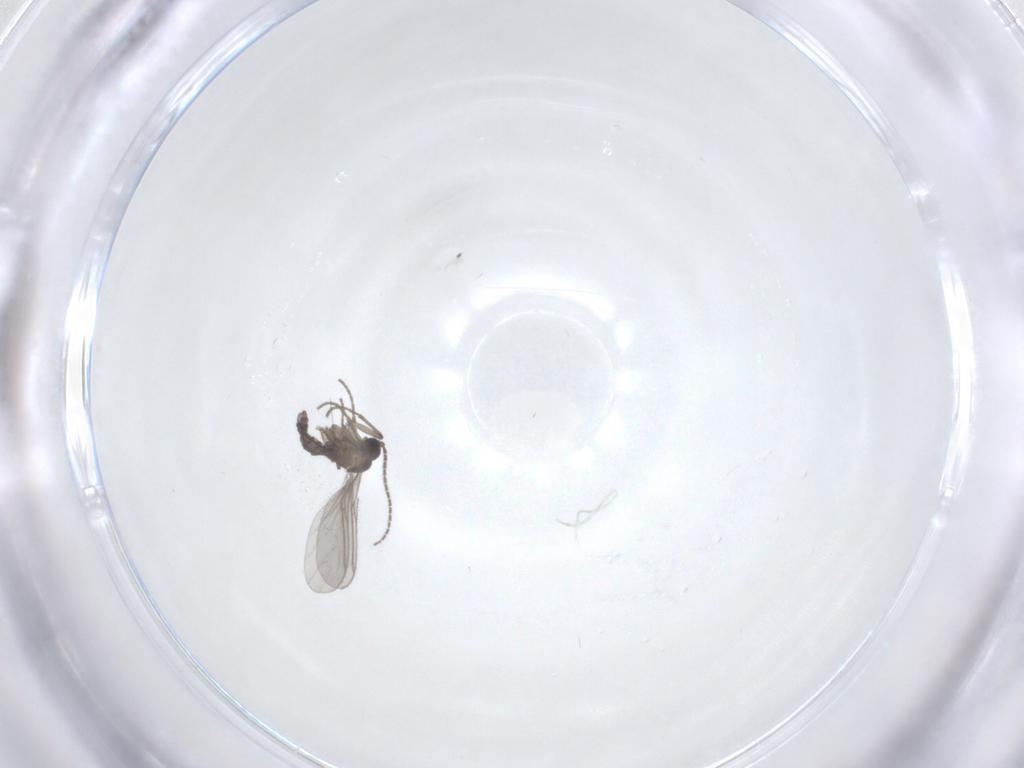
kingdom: Animalia
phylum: Arthropoda
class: Insecta
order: Diptera
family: Sciaridae
